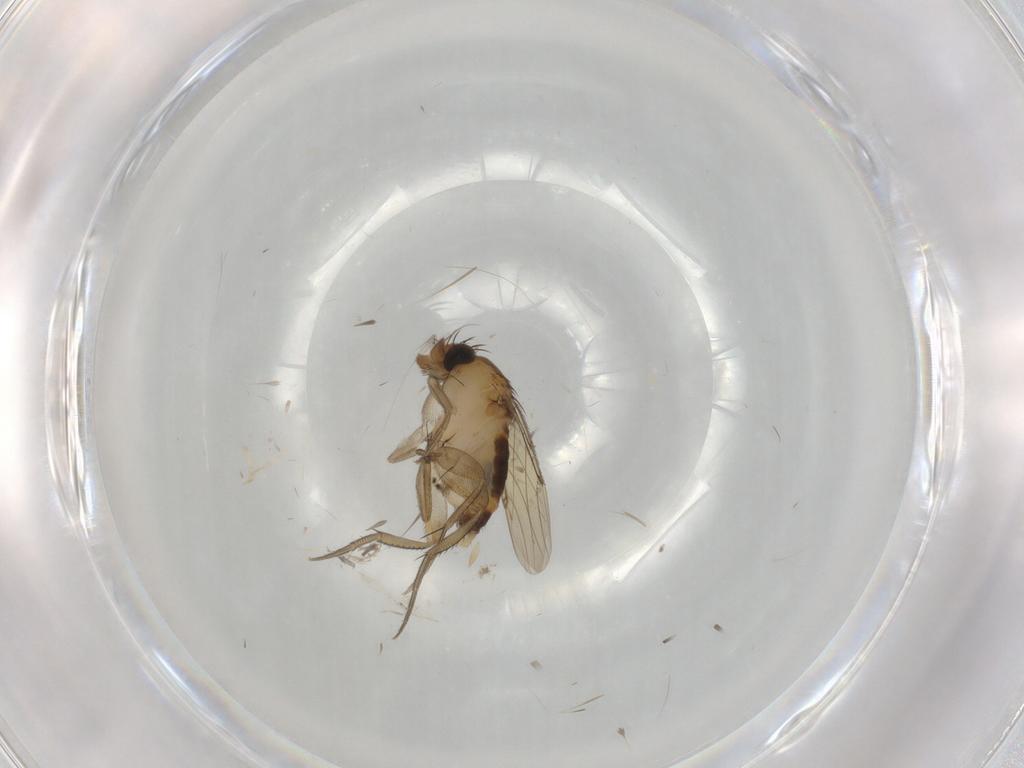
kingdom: Animalia
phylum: Arthropoda
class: Insecta
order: Diptera
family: Phoridae
